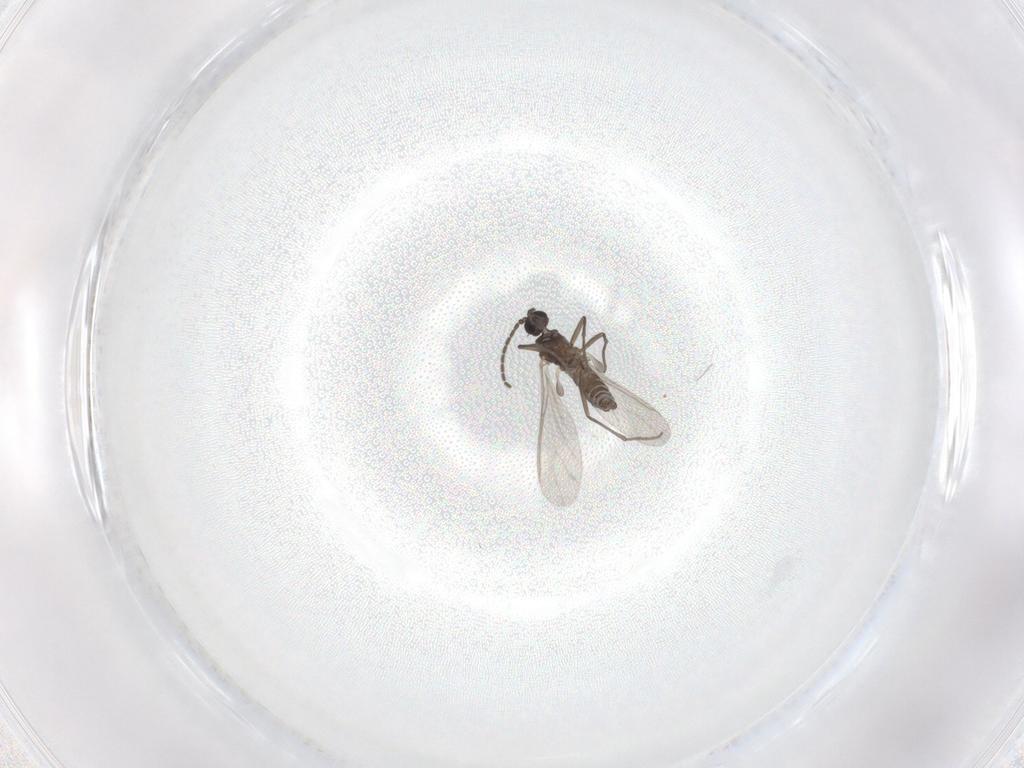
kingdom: Animalia
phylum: Arthropoda
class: Insecta
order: Diptera
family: Sciaridae
